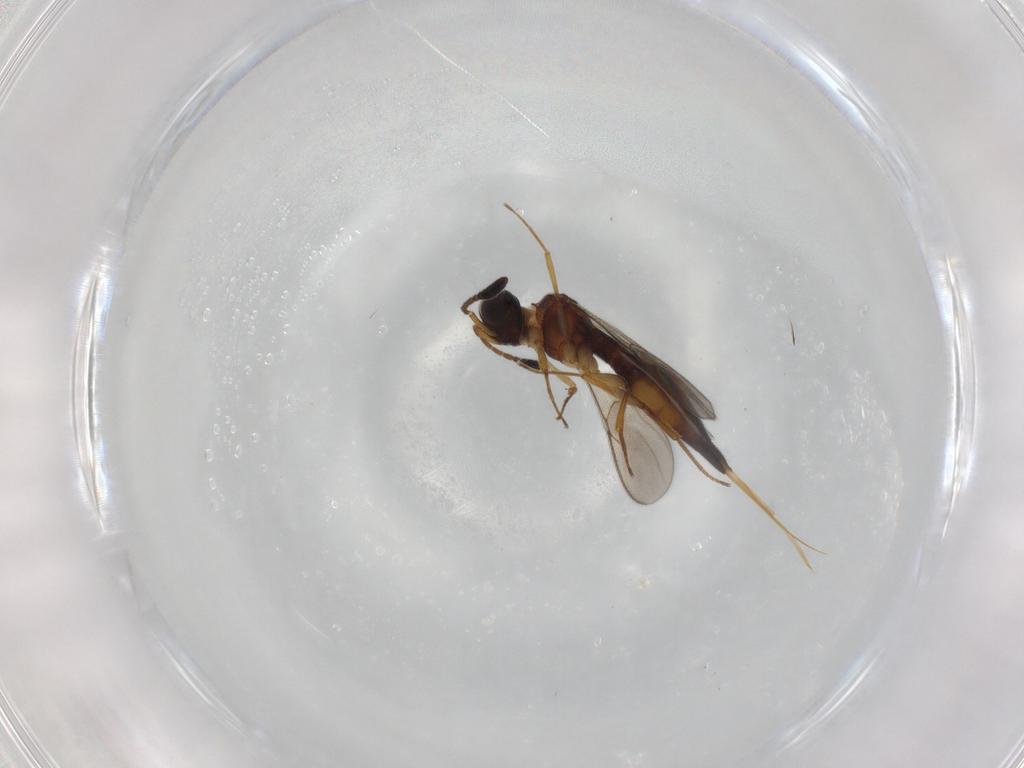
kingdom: Animalia
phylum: Arthropoda
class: Insecta
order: Hymenoptera
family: Scelionidae
